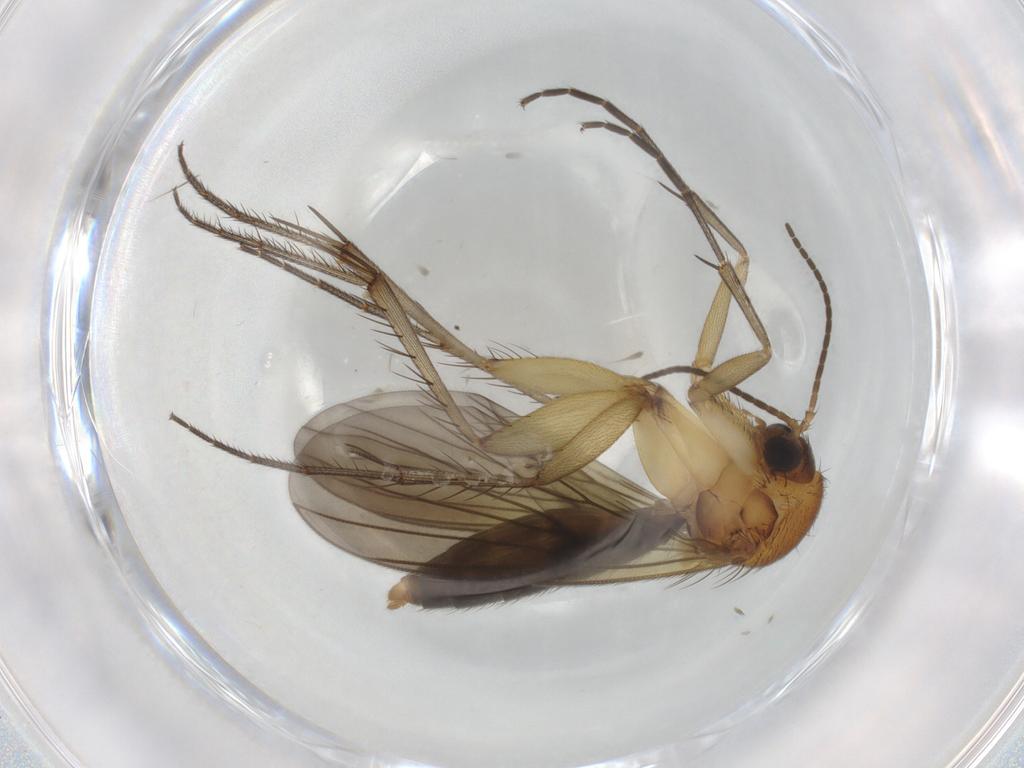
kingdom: Animalia
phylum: Arthropoda
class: Insecta
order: Diptera
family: Mycetophilidae
